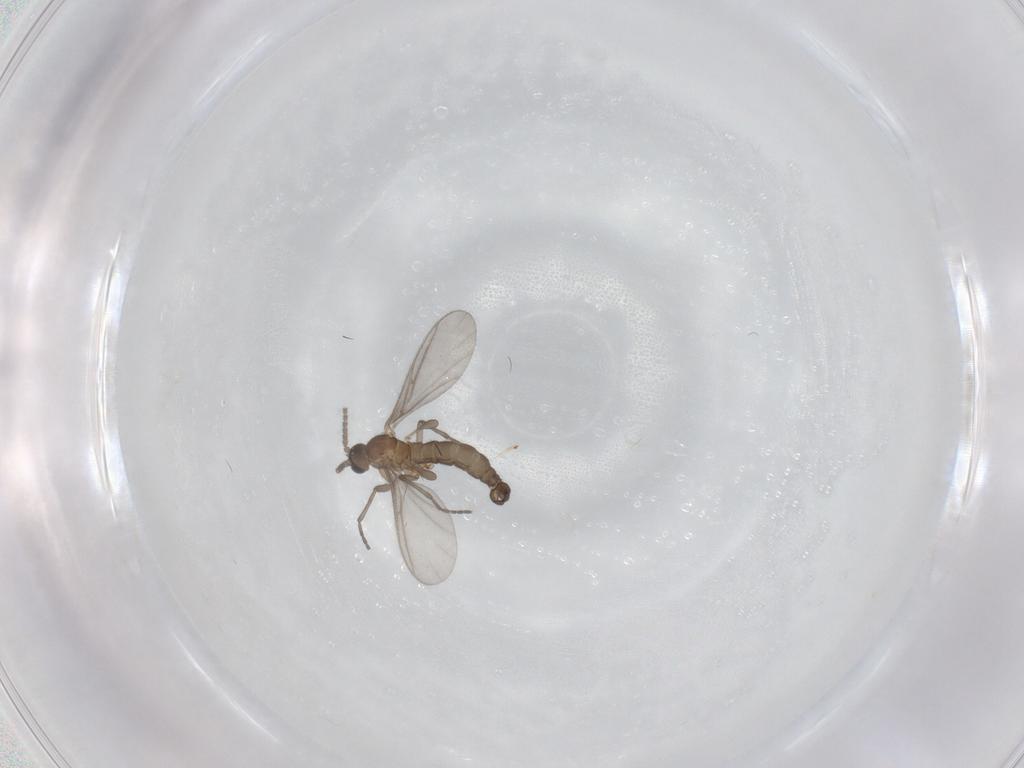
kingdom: Animalia
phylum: Arthropoda
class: Insecta
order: Diptera
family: Sciaridae
